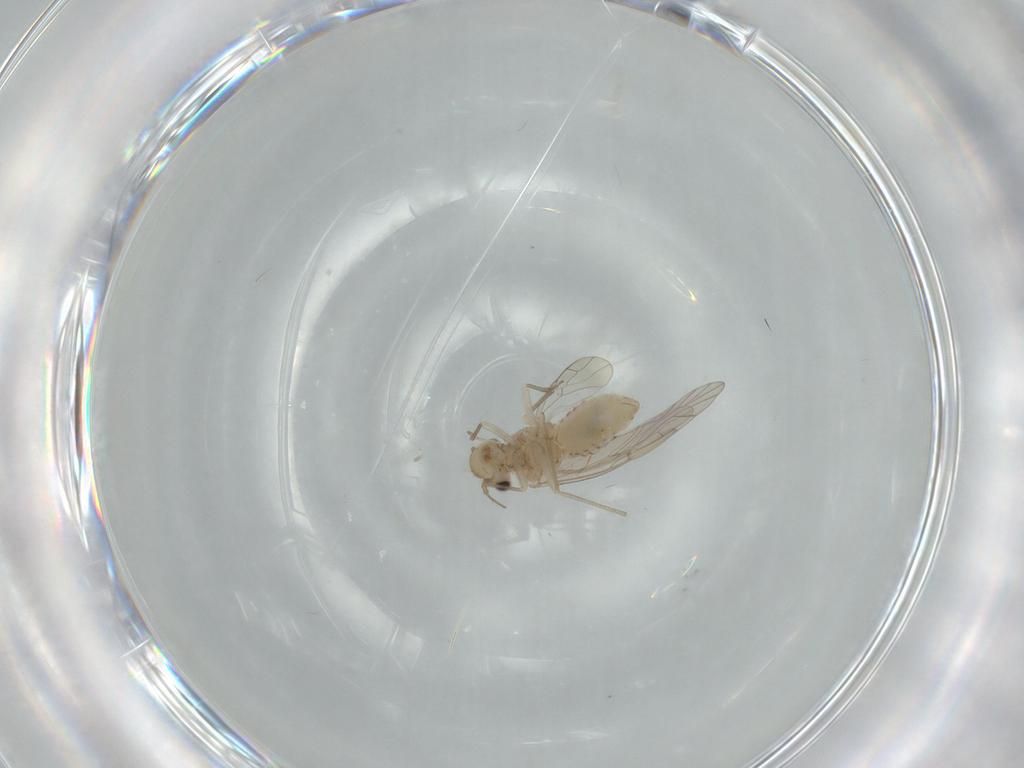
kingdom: Animalia
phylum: Arthropoda
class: Insecta
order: Psocodea
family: Lachesillidae
